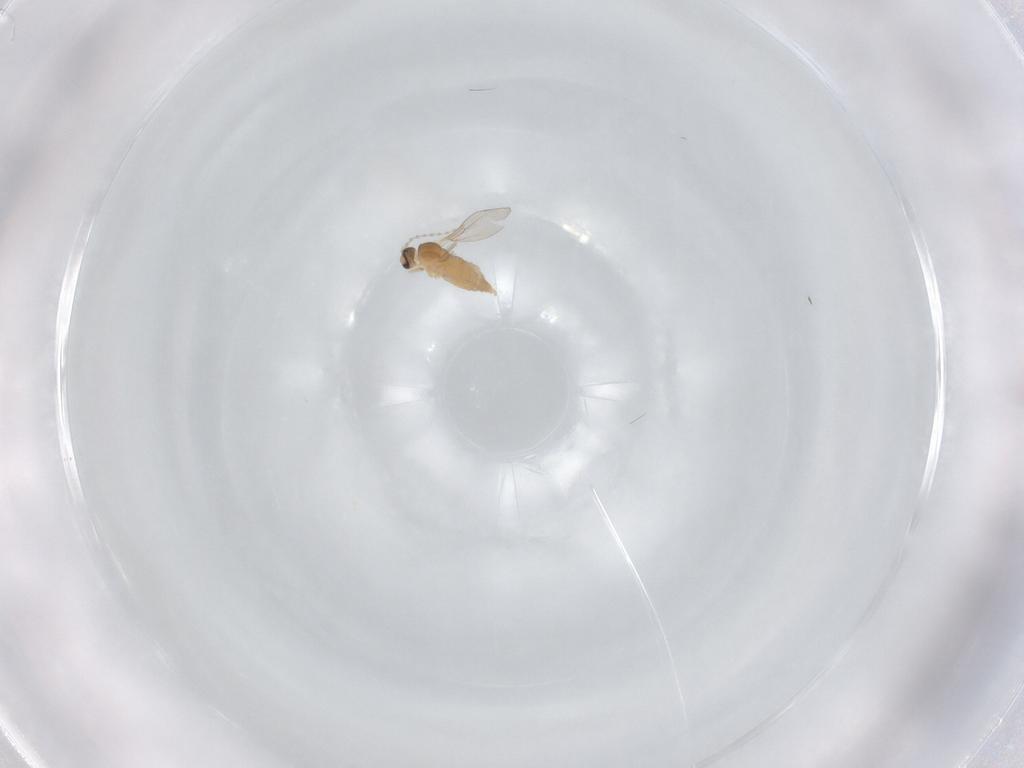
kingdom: Animalia
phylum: Arthropoda
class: Insecta
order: Diptera
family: Cecidomyiidae
